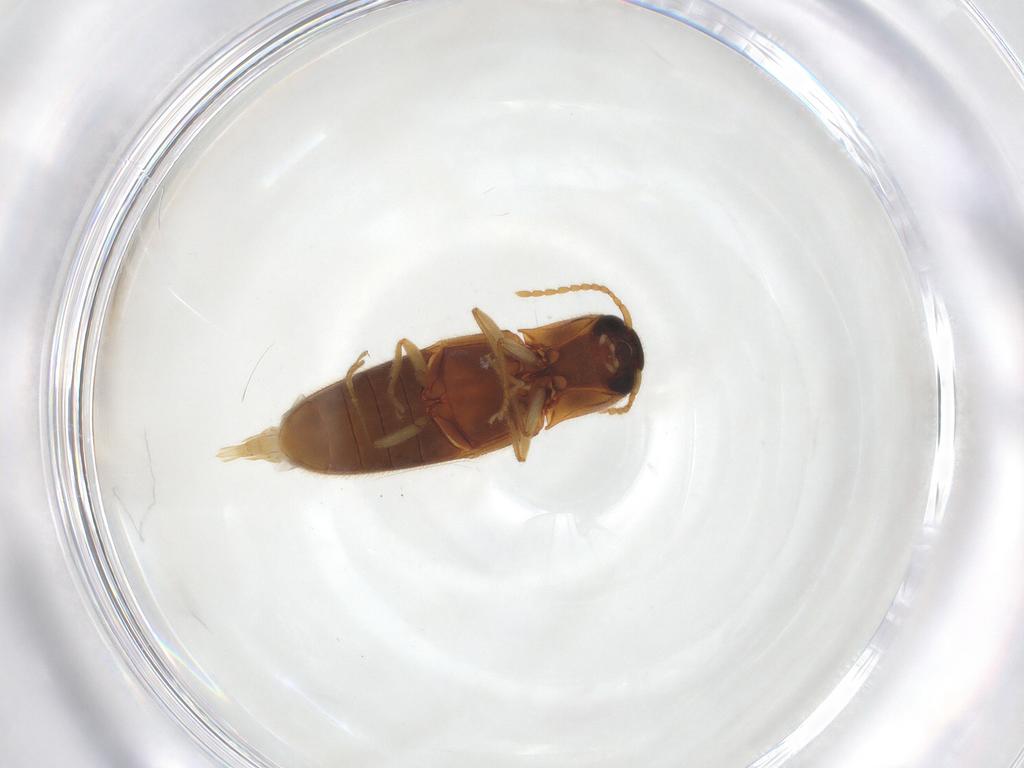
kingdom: Animalia
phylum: Arthropoda
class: Insecta
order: Coleoptera
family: Elateridae
